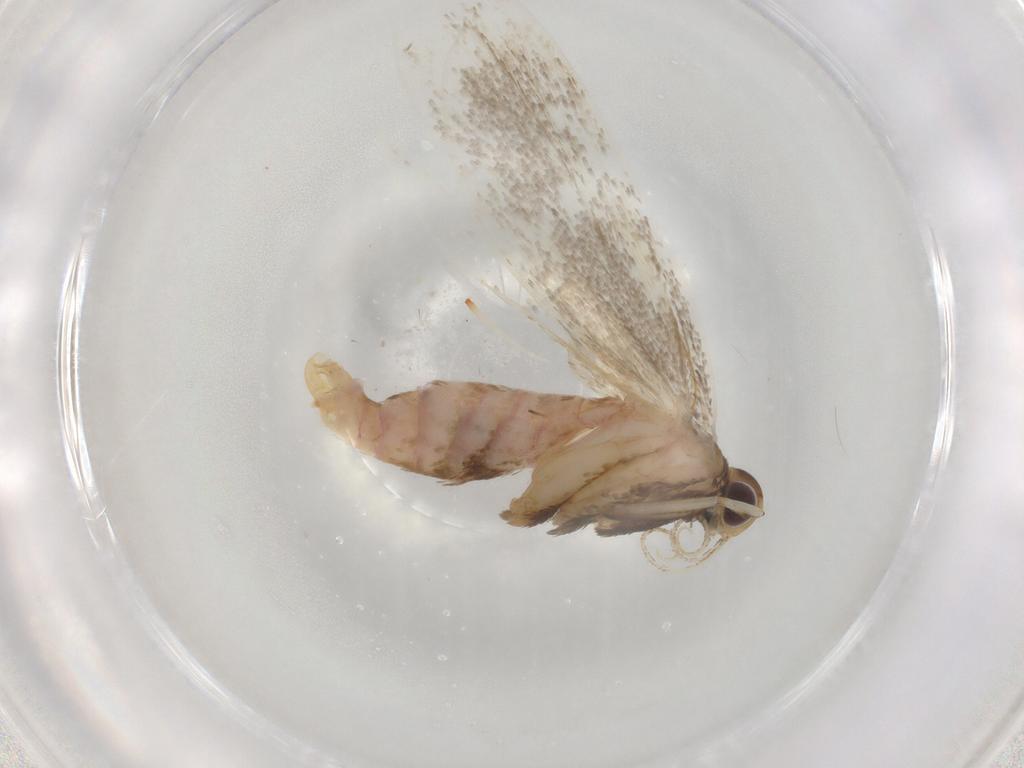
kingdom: Animalia
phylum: Arthropoda
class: Insecta
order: Lepidoptera
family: Lecithoceridae
